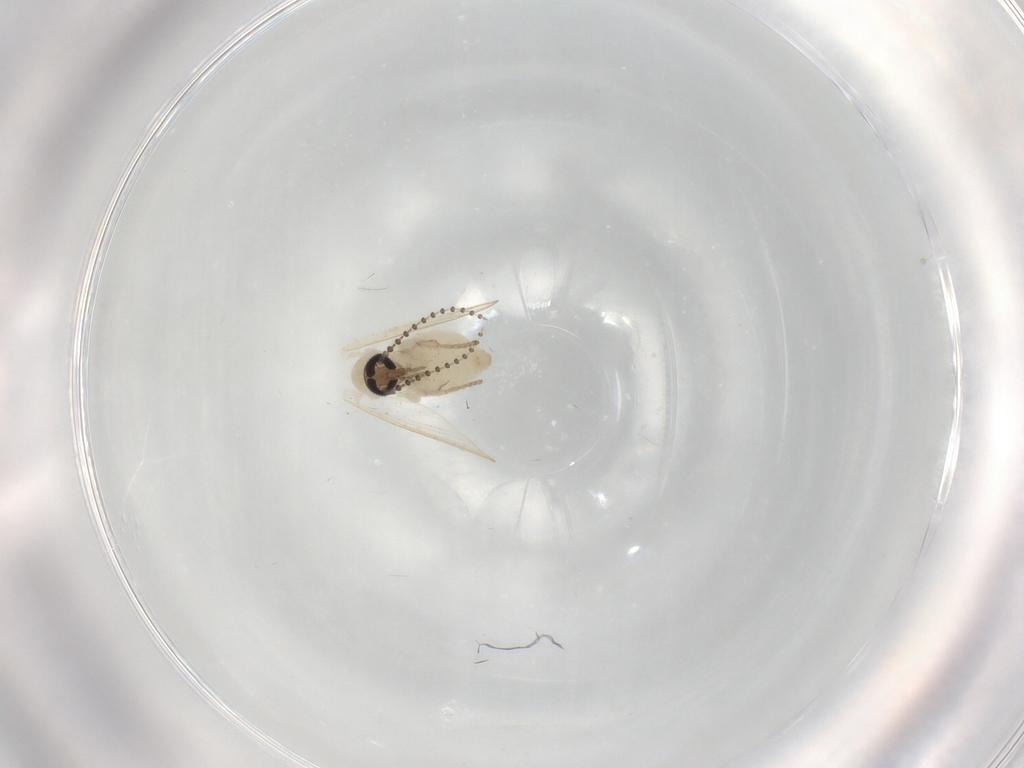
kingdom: Animalia
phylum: Arthropoda
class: Insecta
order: Diptera
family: Psychodidae
